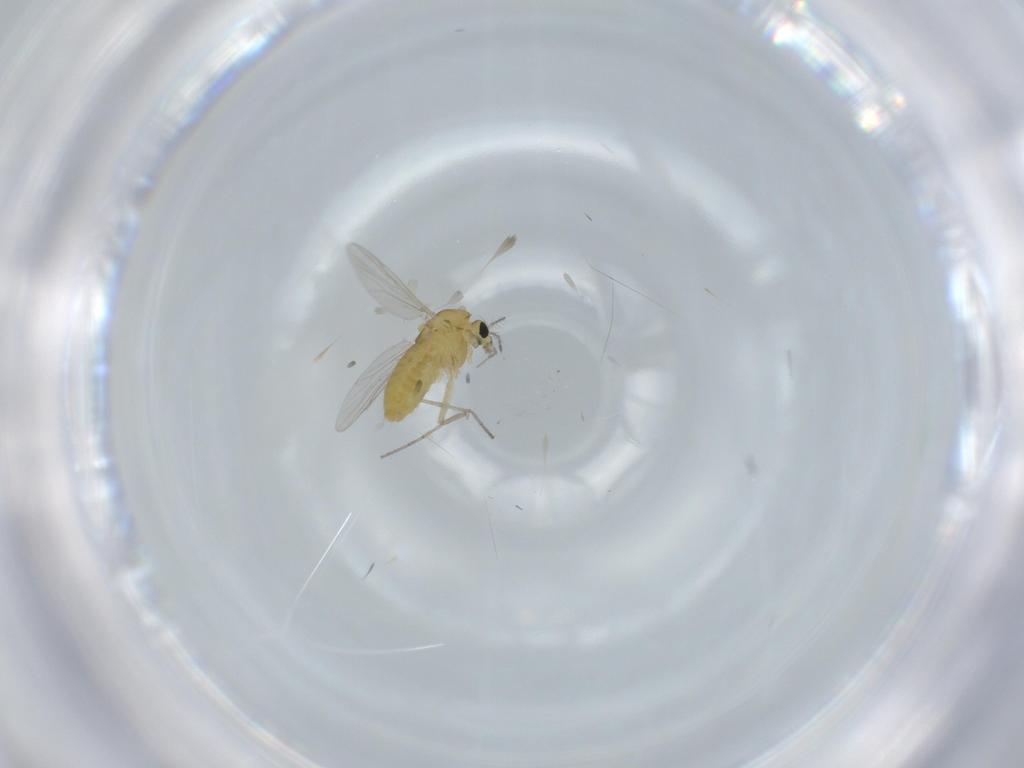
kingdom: Animalia
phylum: Arthropoda
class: Insecta
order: Diptera
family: Chironomidae
